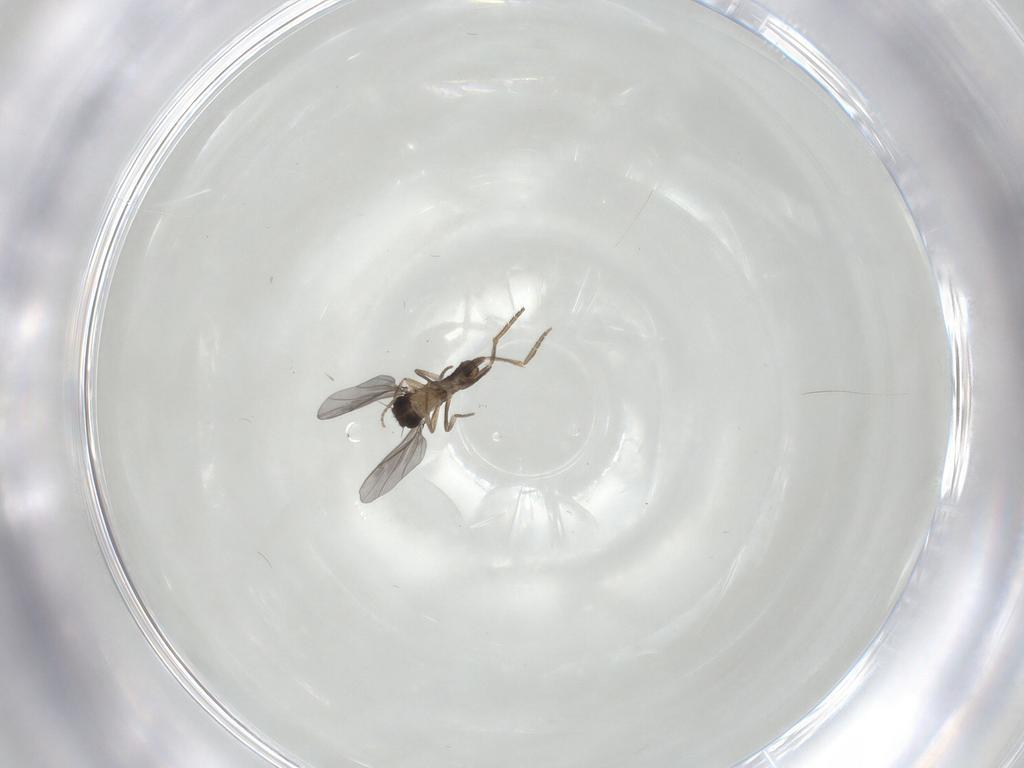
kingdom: Animalia
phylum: Arthropoda
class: Insecta
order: Diptera
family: Cecidomyiidae
